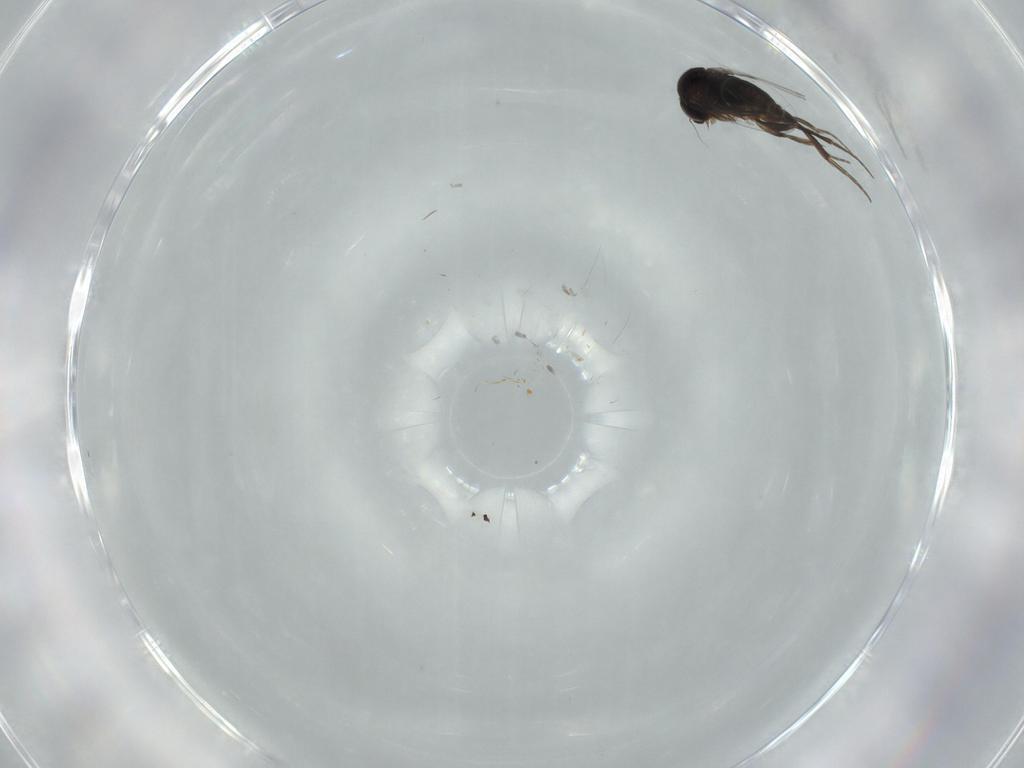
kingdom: Animalia
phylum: Arthropoda
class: Insecta
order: Diptera
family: Phoridae
